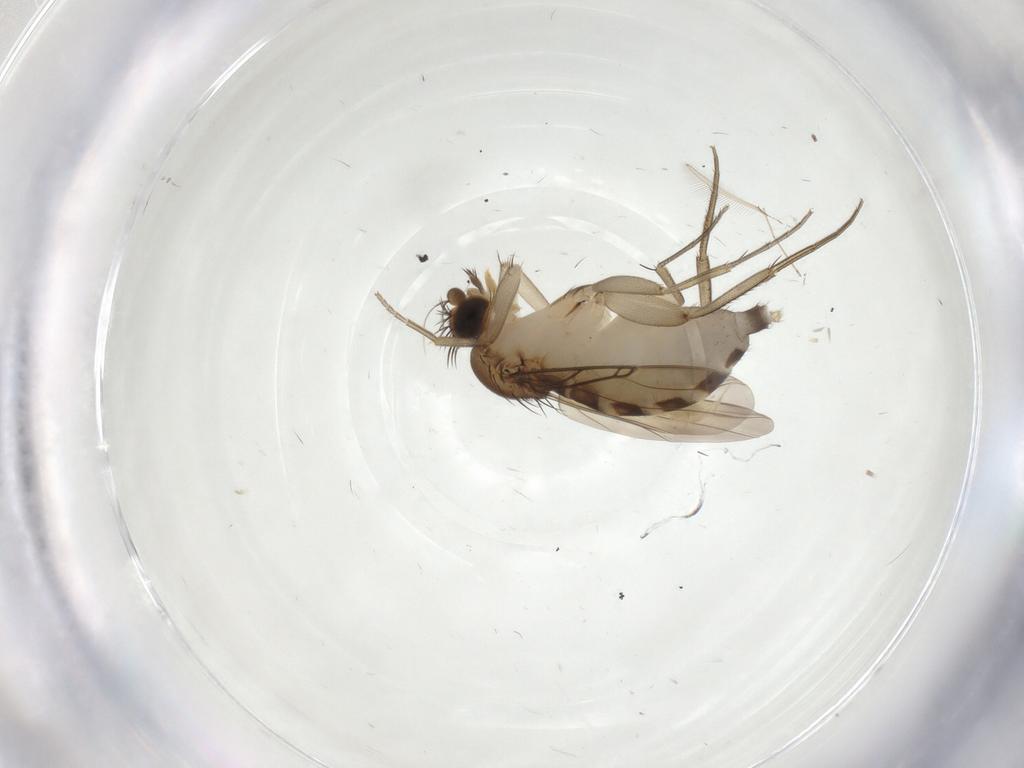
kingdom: Animalia
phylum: Arthropoda
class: Insecta
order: Diptera
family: Phoridae
